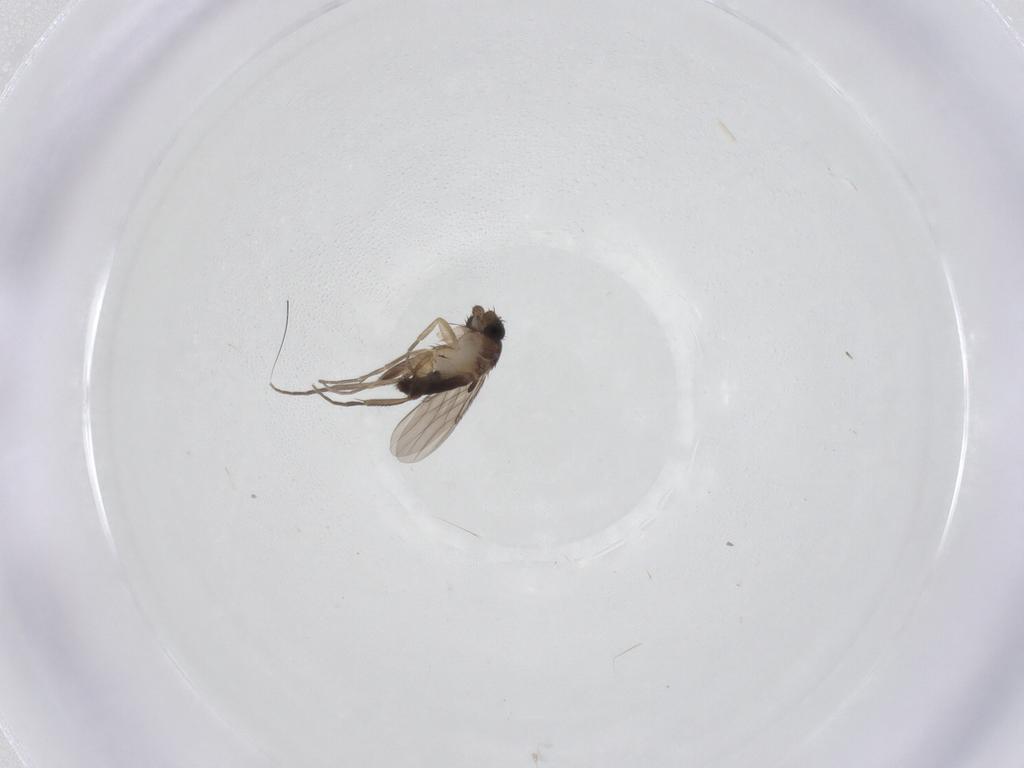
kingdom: Animalia
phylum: Arthropoda
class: Insecta
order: Diptera
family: Phoridae
